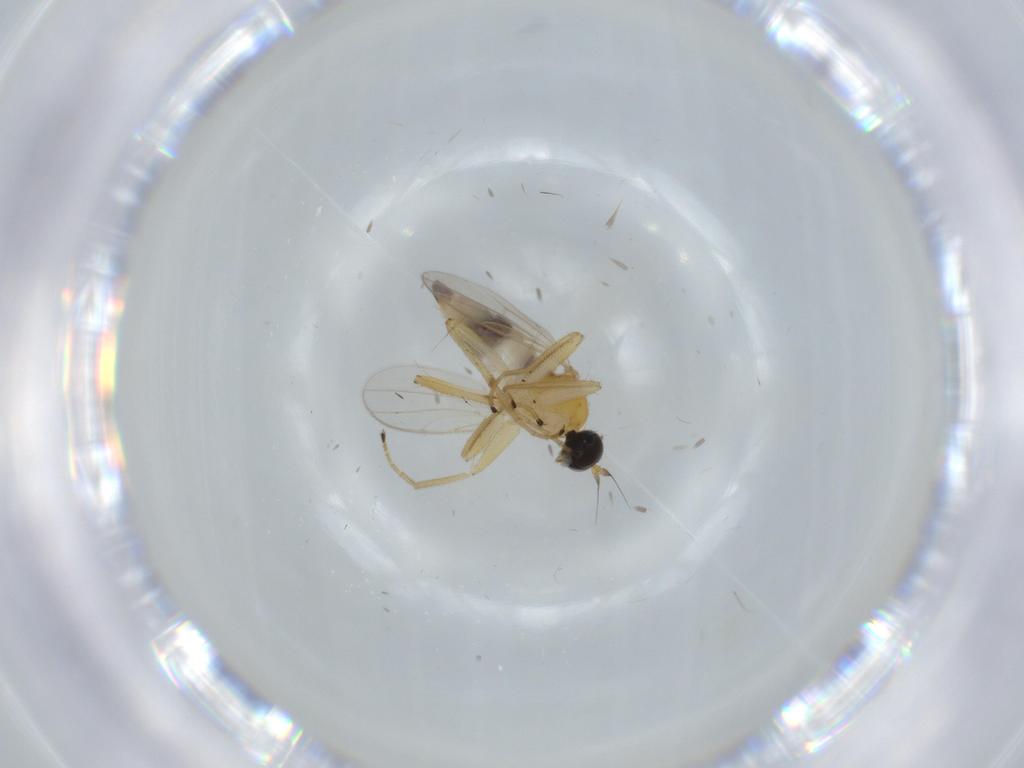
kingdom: Animalia
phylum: Arthropoda
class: Insecta
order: Diptera
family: Hybotidae
